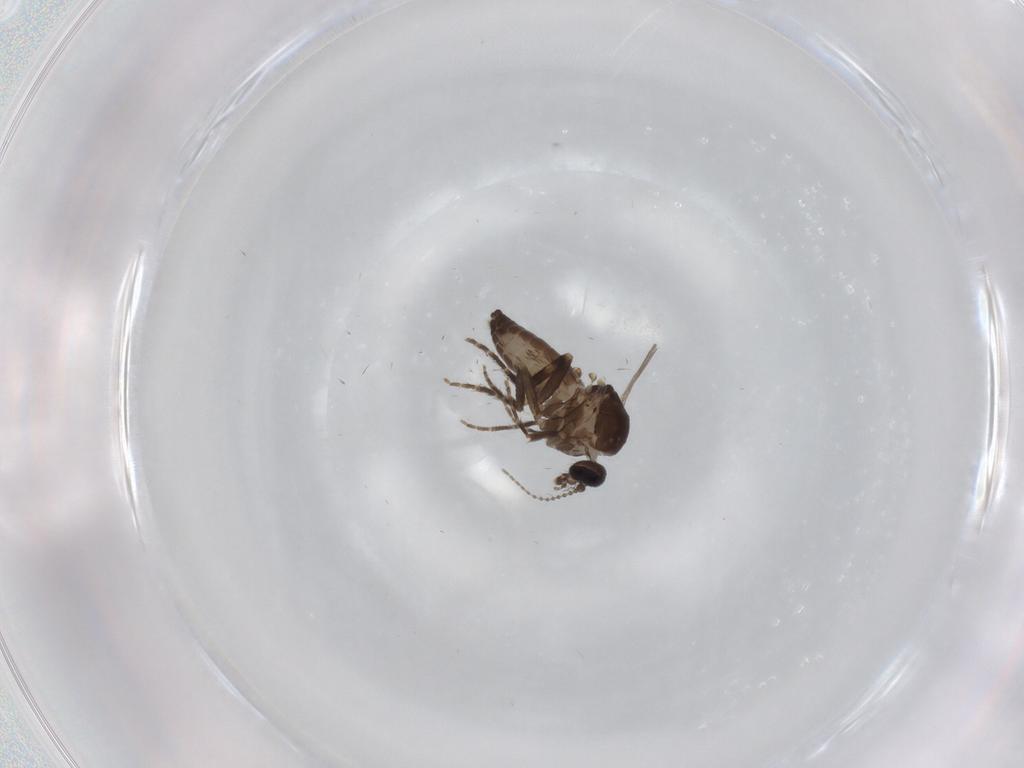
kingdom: Animalia
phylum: Arthropoda
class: Insecta
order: Diptera
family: Ceratopogonidae
